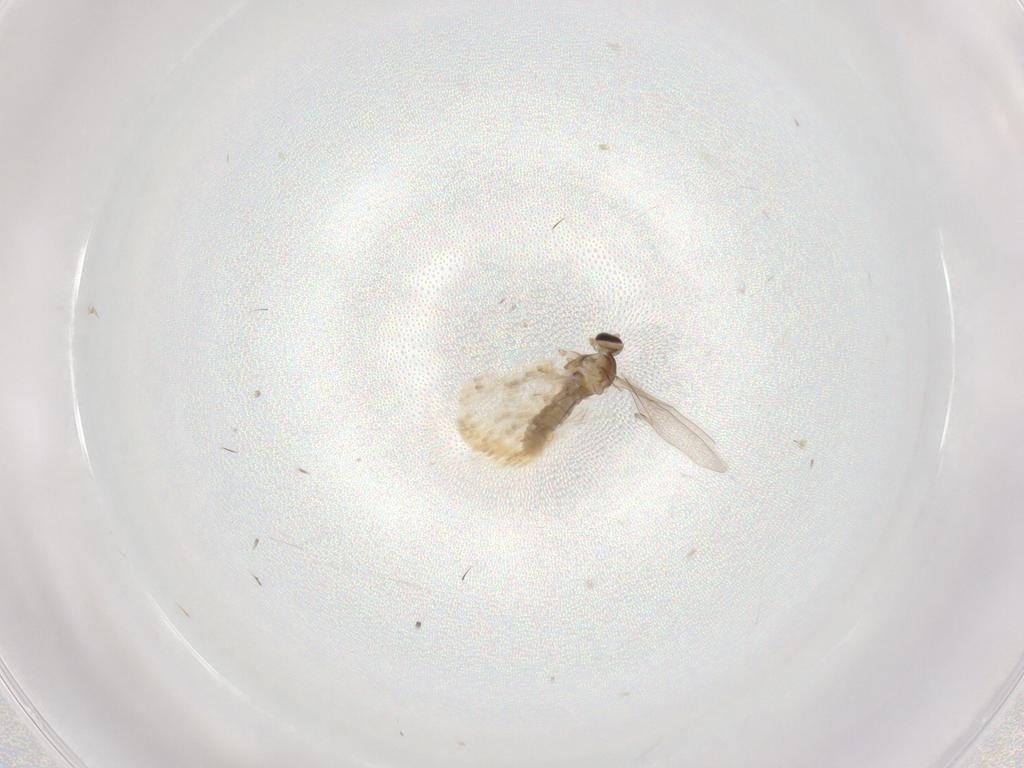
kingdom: Animalia
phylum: Arthropoda
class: Insecta
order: Diptera
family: Cecidomyiidae
